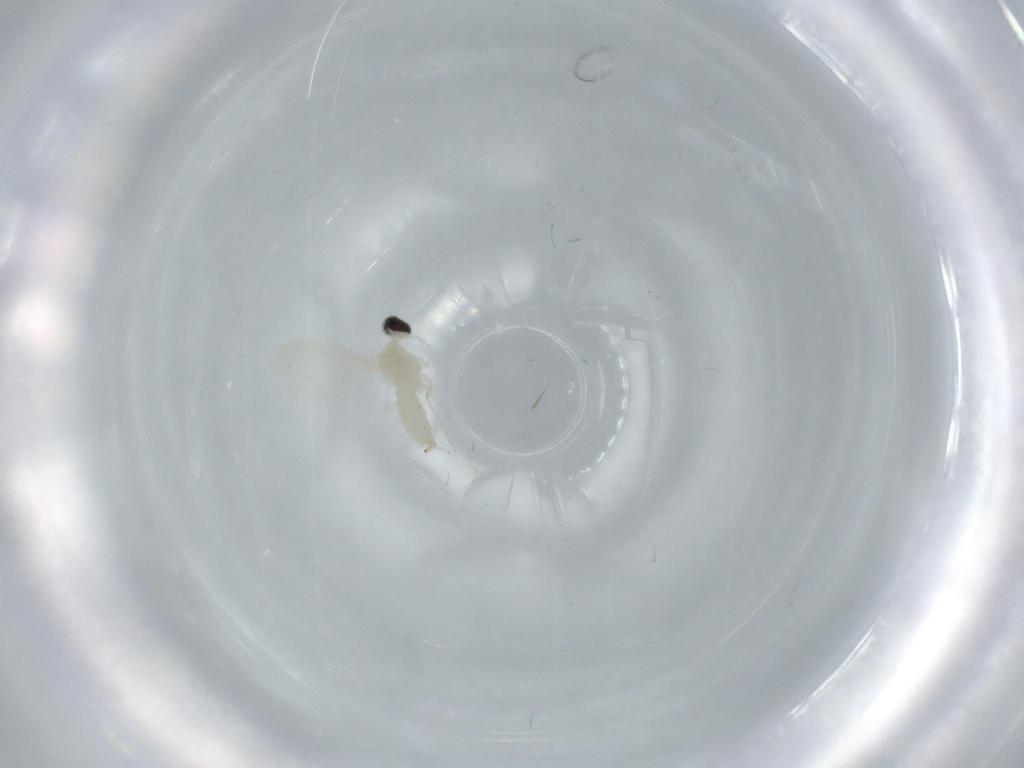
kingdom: Animalia
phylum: Arthropoda
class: Insecta
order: Diptera
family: Cecidomyiidae
